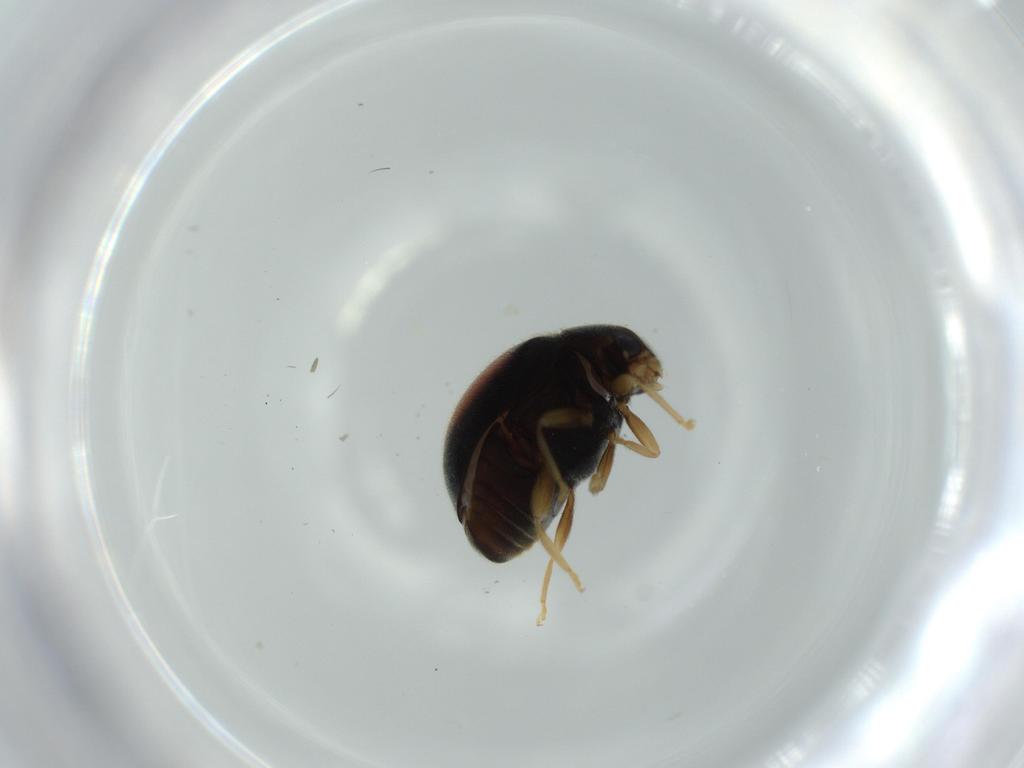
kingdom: Animalia
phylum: Arthropoda
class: Insecta
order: Coleoptera
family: Coccinellidae
